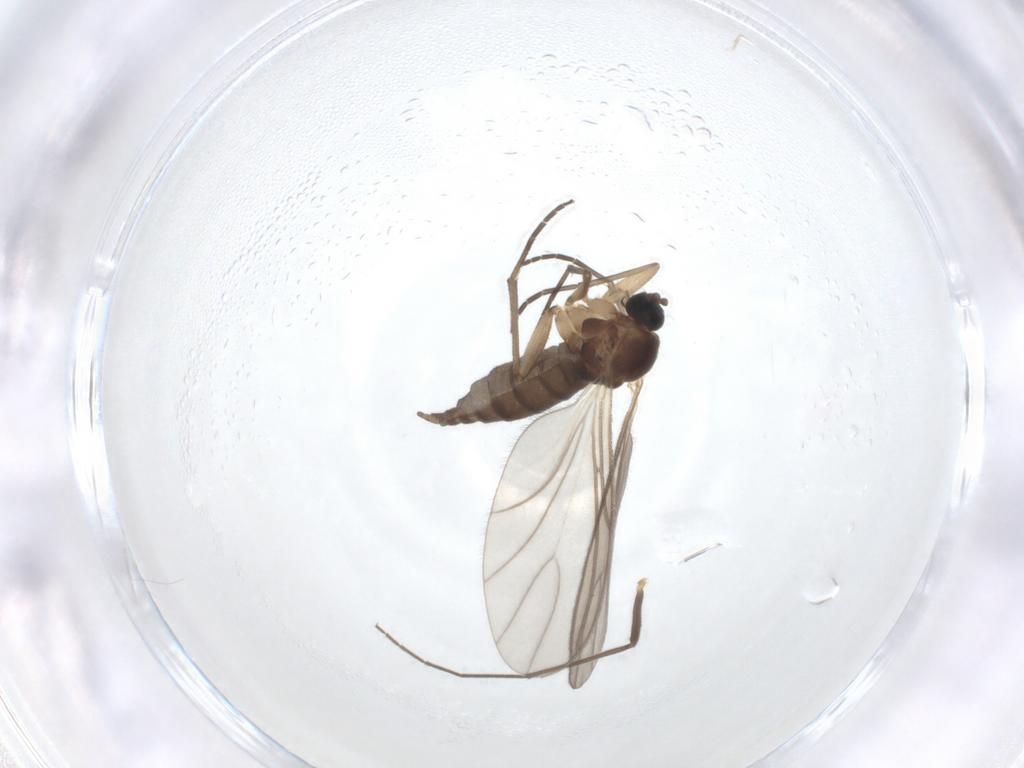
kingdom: Animalia
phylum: Arthropoda
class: Insecta
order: Diptera
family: Sciaridae
